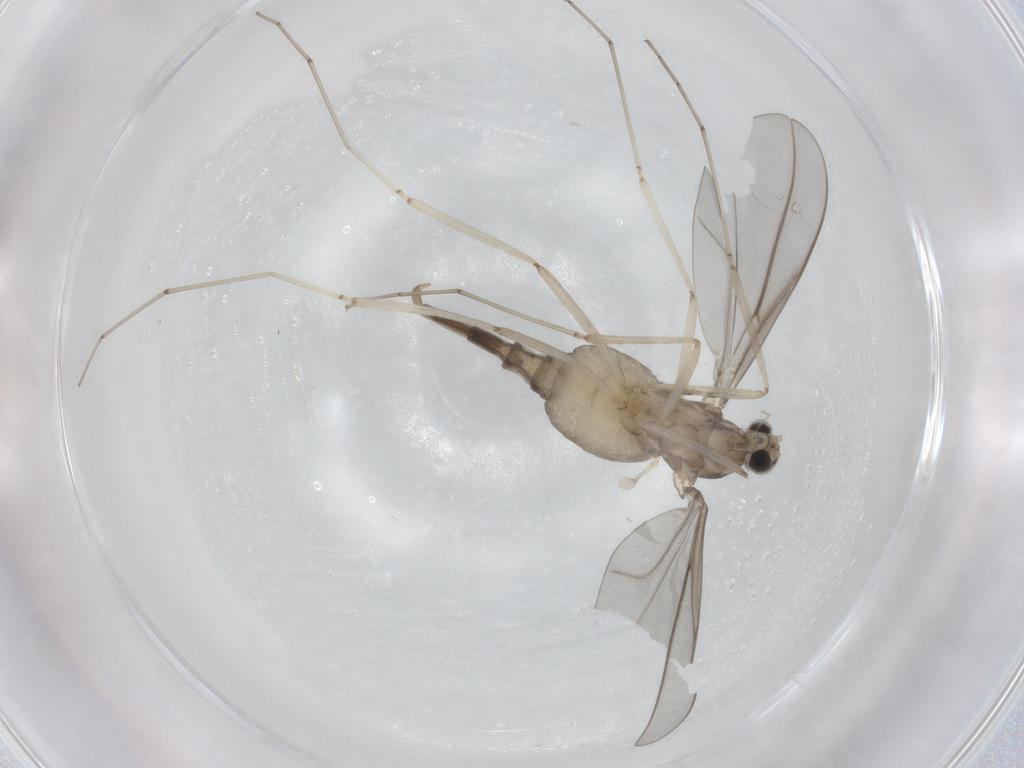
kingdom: Animalia
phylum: Arthropoda
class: Insecta
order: Diptera
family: Cecidomyiidae
